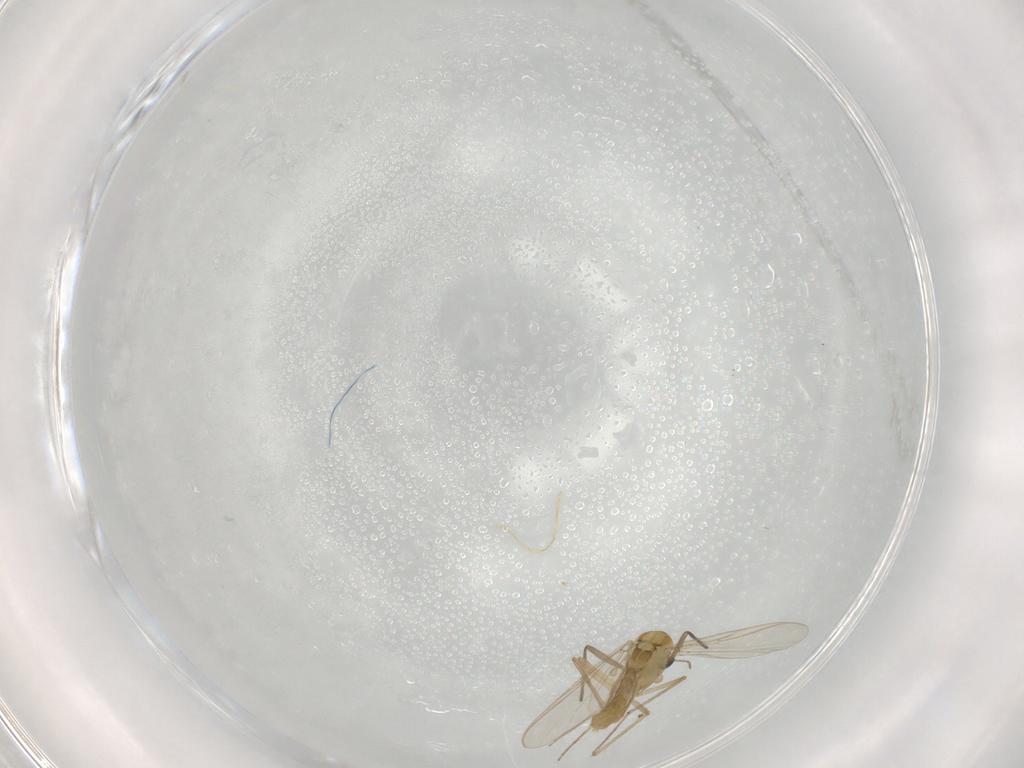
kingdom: Animalia
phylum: Arthropoda
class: Insecta
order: Diptera
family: Chironomidae
